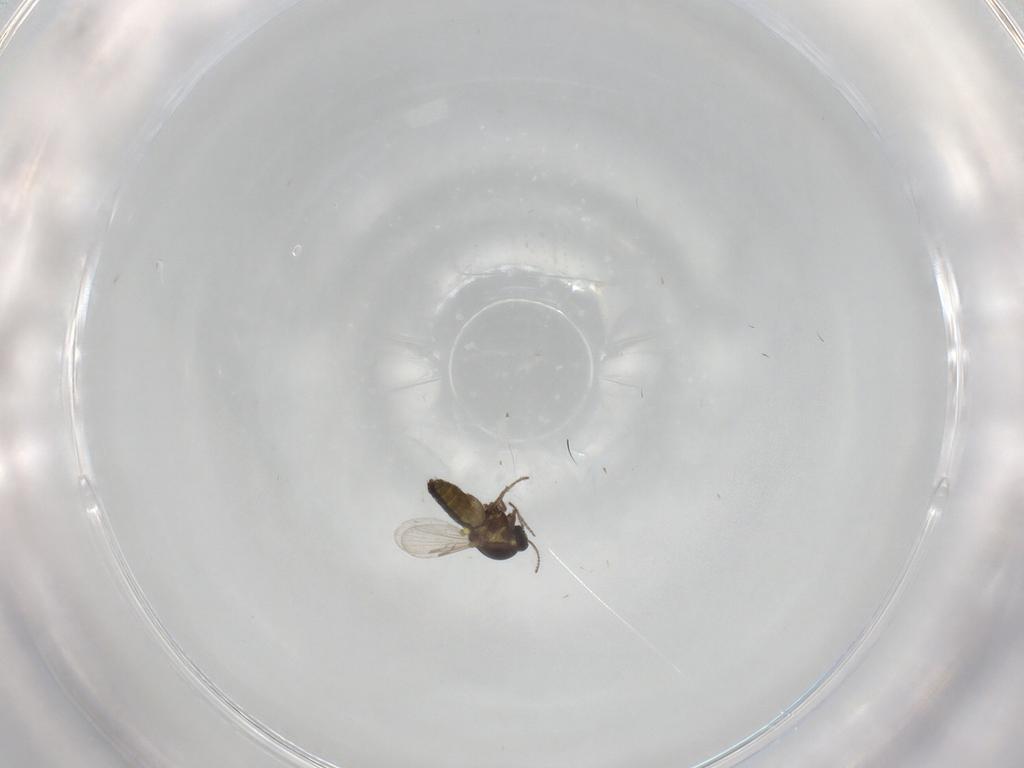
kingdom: Animalia
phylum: Arthropoda
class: Insecta
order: Diptera
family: Ceratopogonidae
